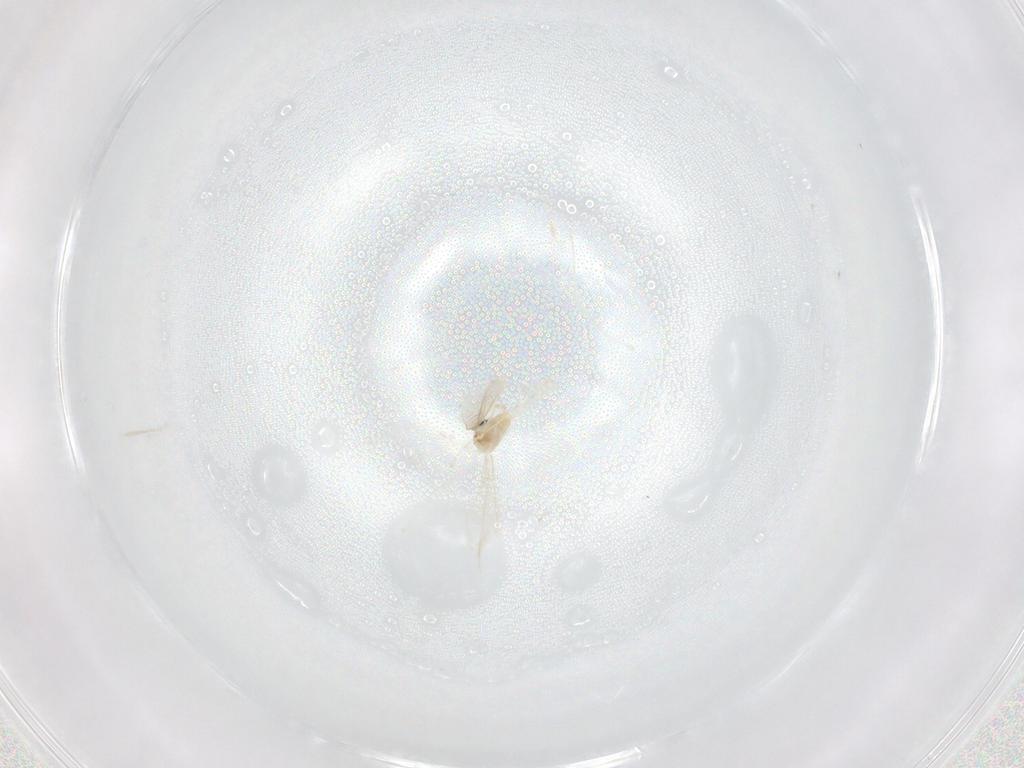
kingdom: Animalia
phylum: Arthropoda
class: Insecta
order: Diptera
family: Cecidomyiidae
